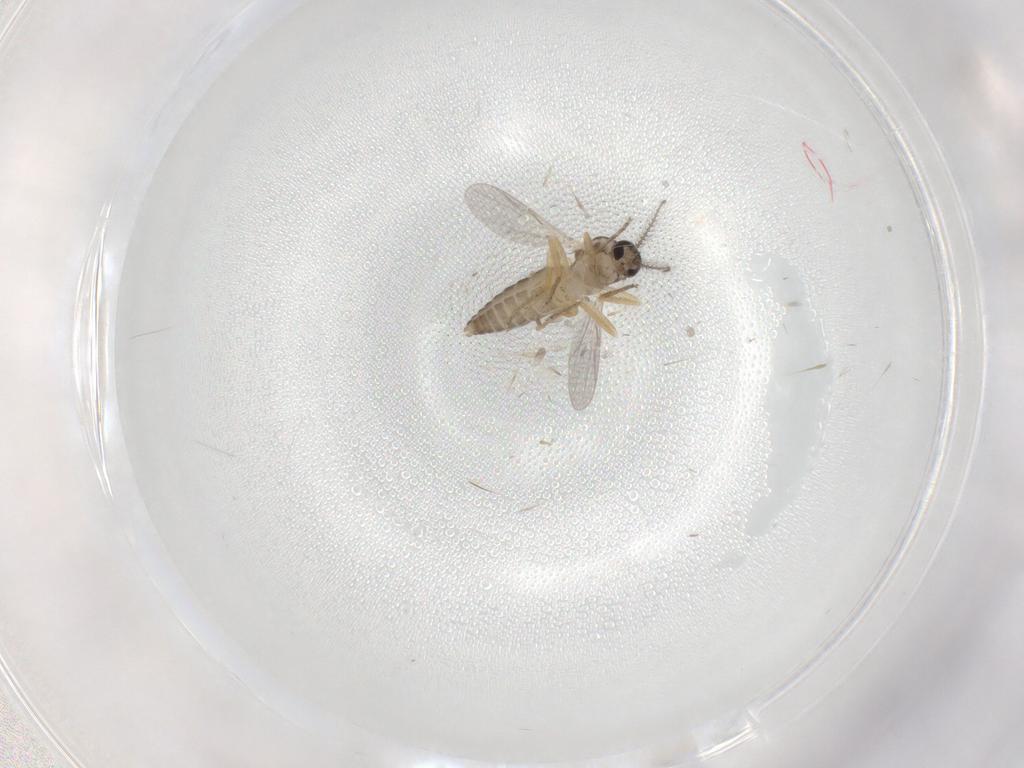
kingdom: Animalia
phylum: Arthropoda
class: Insecta
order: Diptera
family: Ceratopogonidae
